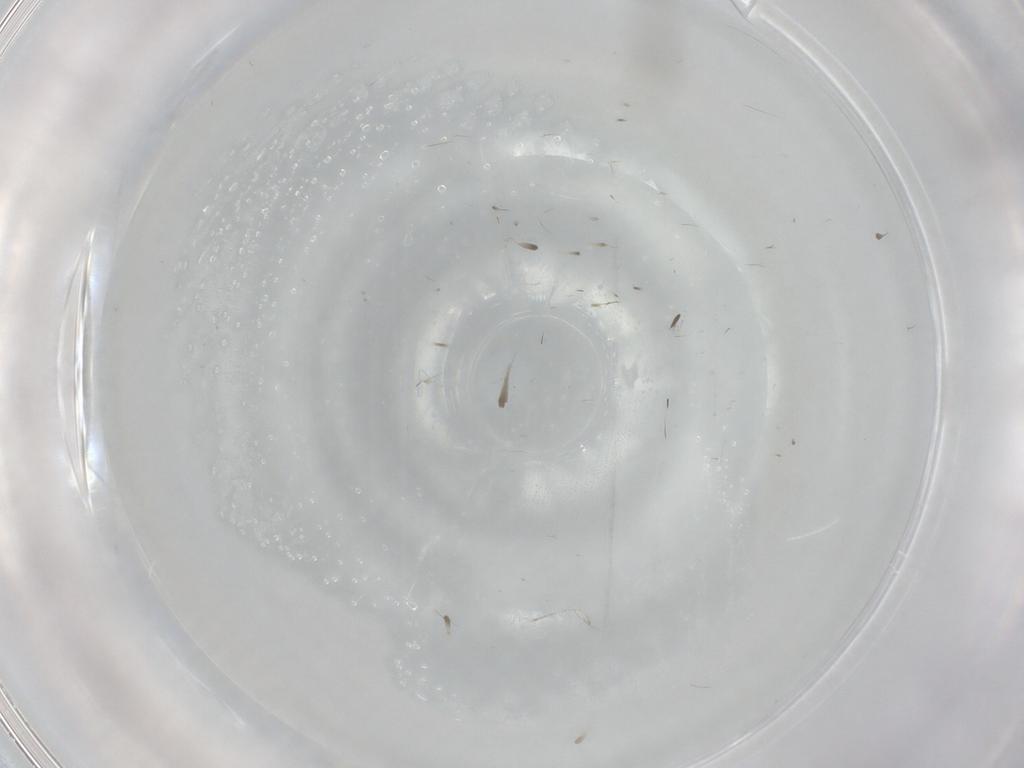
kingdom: Animalia
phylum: Arthropoda
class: Insecta
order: Diptera
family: Cecidomyiidae
